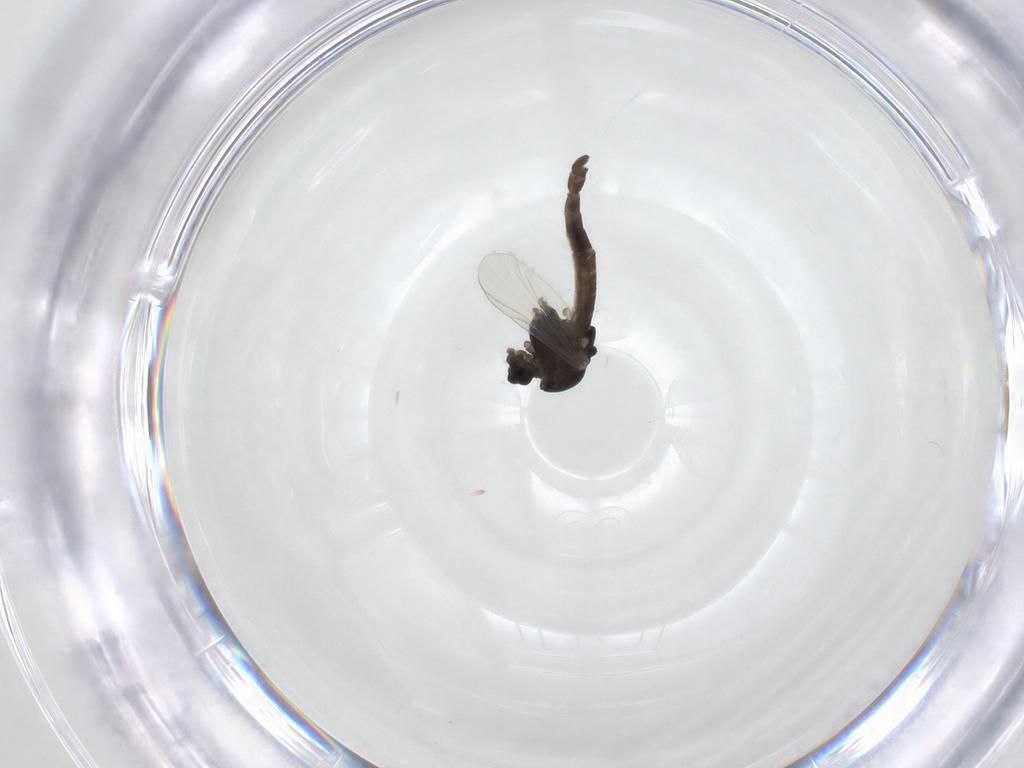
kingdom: Animalia
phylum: Arthropoda
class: Insecta
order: Diptera
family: Chironomidae
